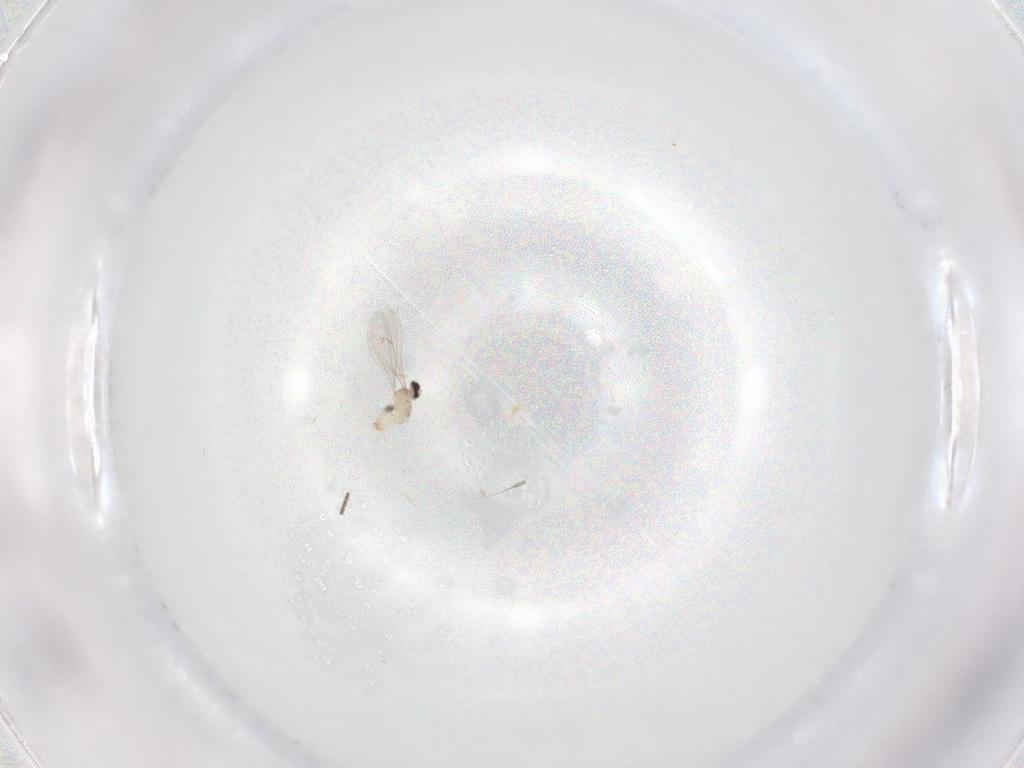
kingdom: Animalia
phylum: Arthropoda
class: Insecta
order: Diptera
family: Cecidomyiidae
